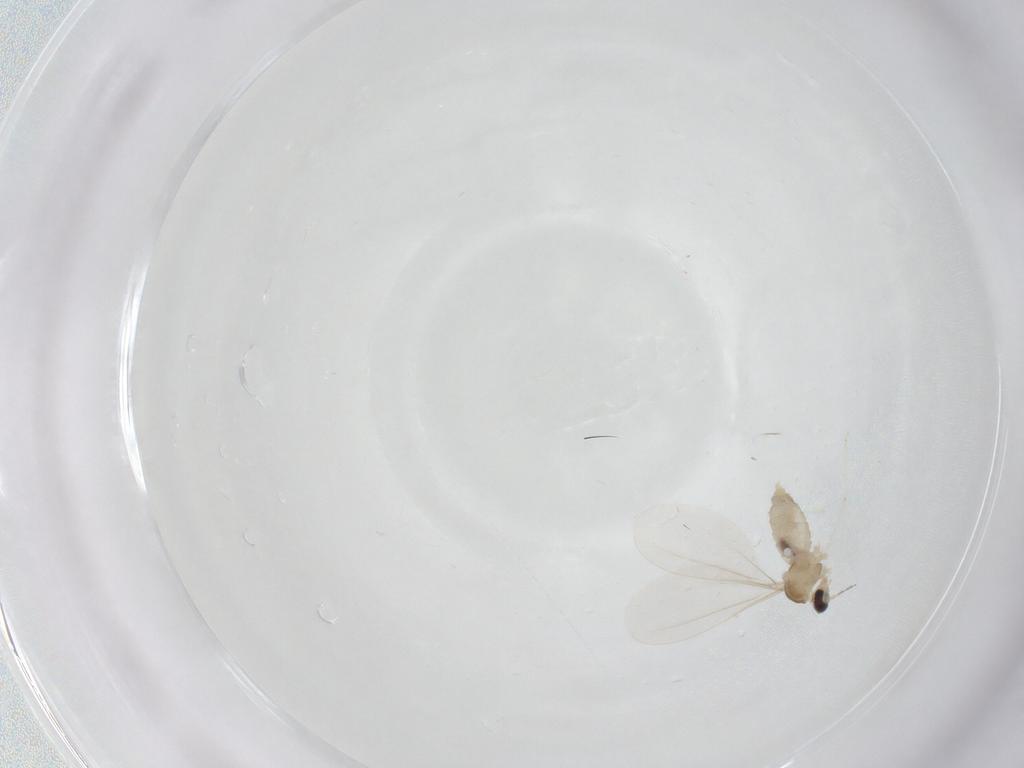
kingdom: Animalia
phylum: Arthropoda
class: Insecta
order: Diptera
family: Cecidomyiidae
